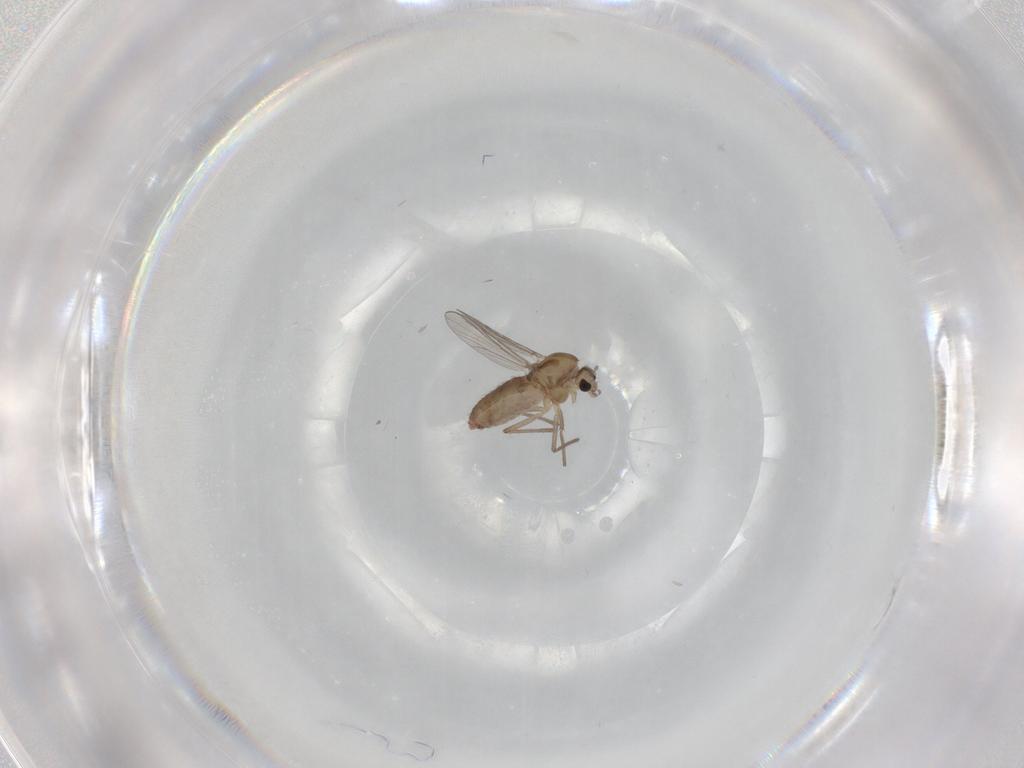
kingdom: Animalia
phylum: Arthropoda
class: Insecta
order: Diptera
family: Chironomidae
